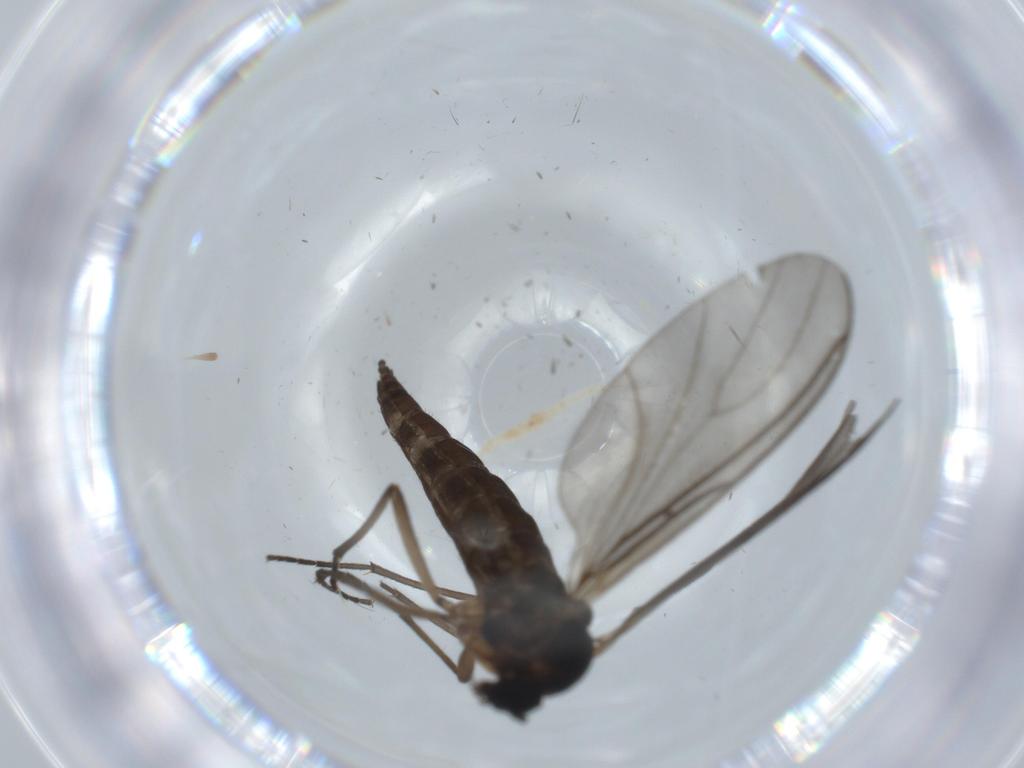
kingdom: Animalia
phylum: Arthropoda
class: Insecta
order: Diptera
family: Sciaridae
